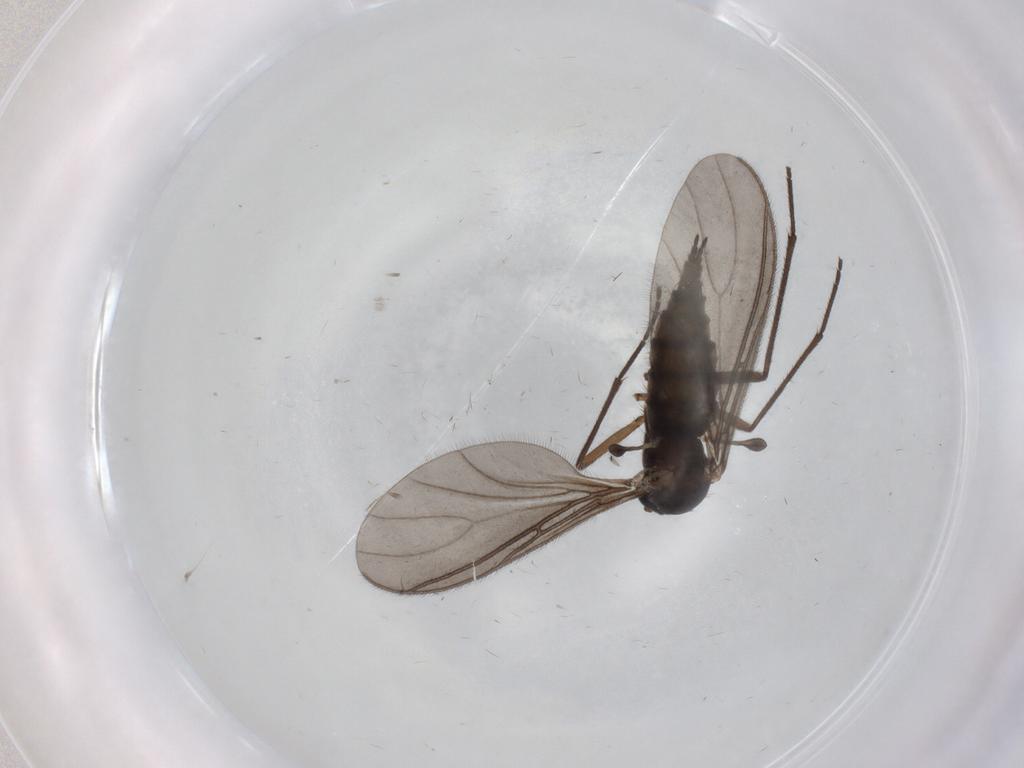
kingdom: Animalia
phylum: Arthropoda
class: Insecta
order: Diptera
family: Sciaridae
